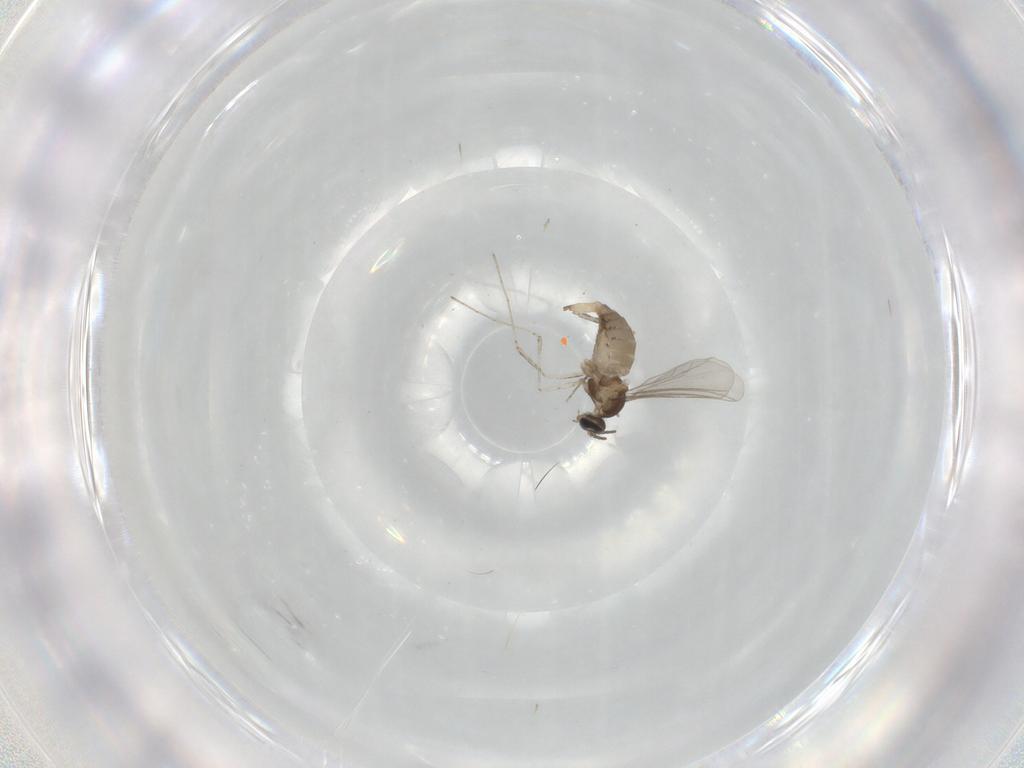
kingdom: Animalia
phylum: Arthropoda
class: Insecta
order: Diptera
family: Cecidomyiidae
